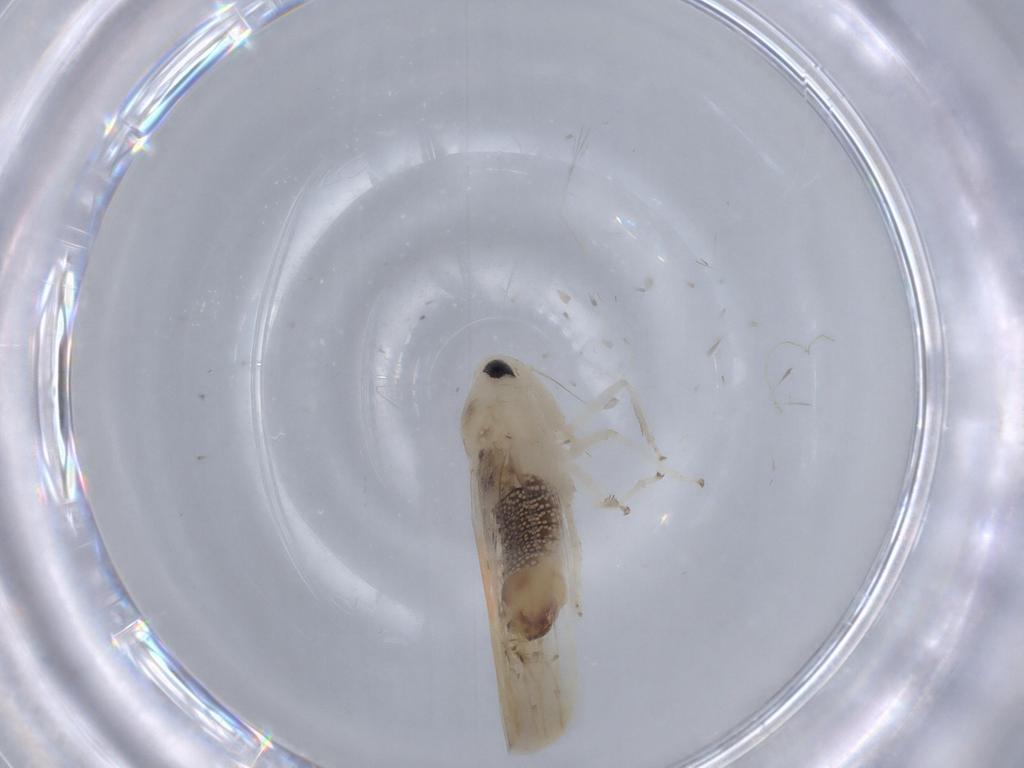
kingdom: Animalia
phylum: Arthropoda
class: Insecta
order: Hemiptera
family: Cicadellidae
